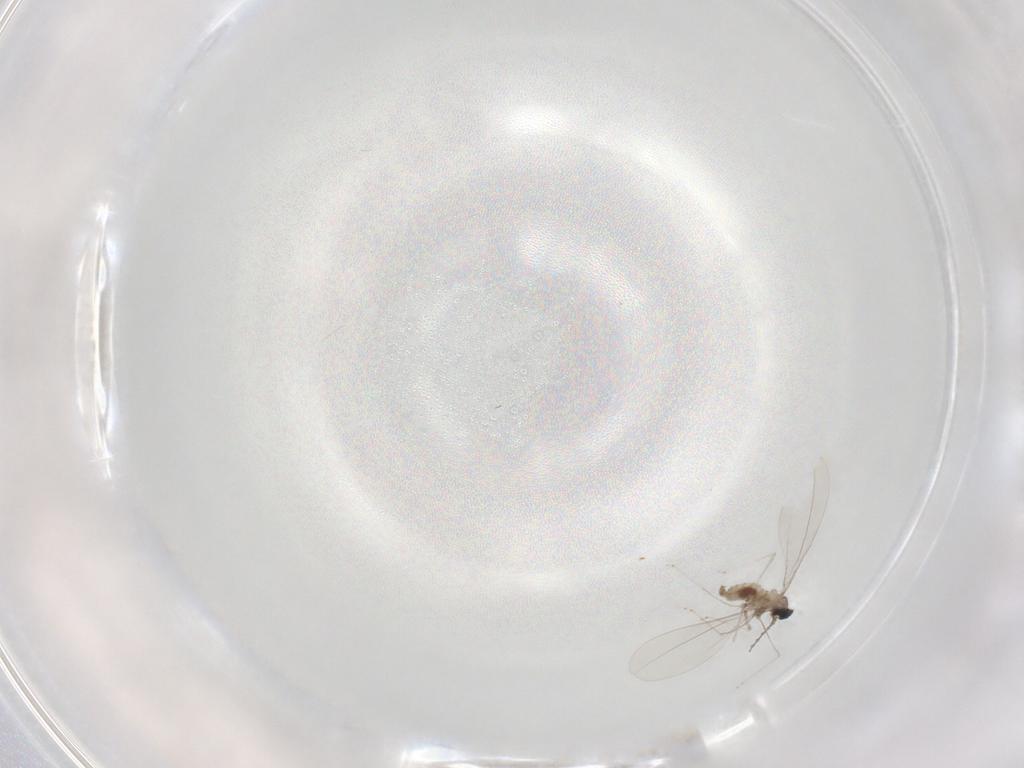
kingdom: Animalia
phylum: Arthropoda
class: Insecta
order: Diptera
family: Cecidomyiidae
